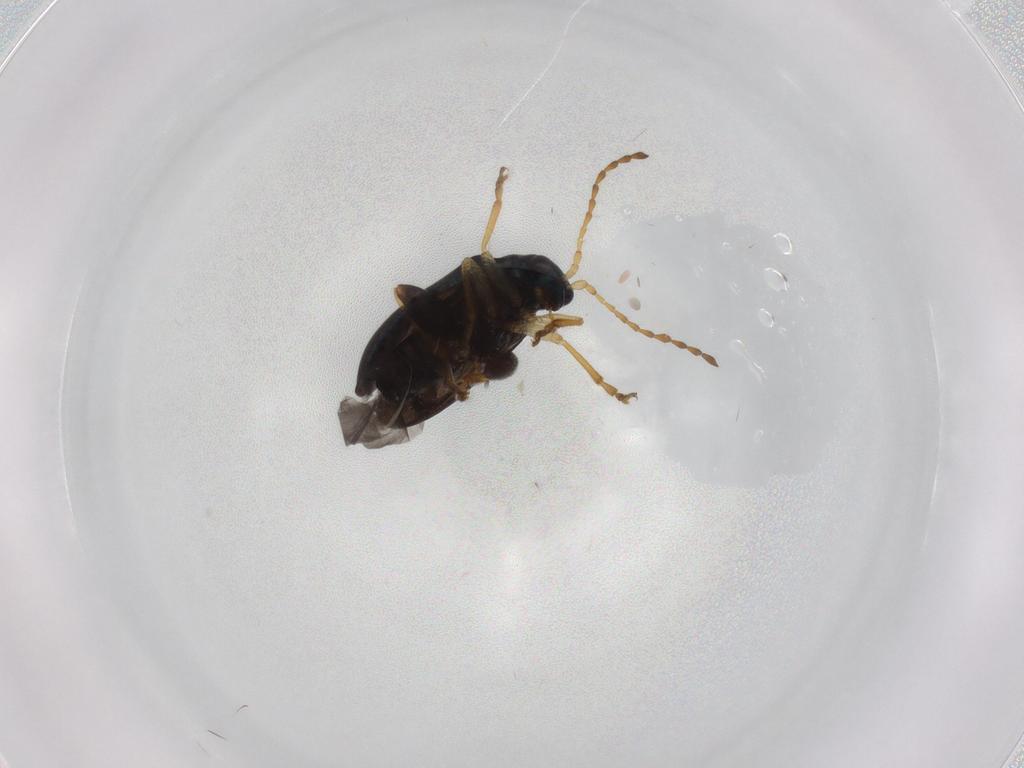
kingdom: Animalia
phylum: Arthropoda
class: Insecta
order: Coleoptera
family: Chrysomelidae
